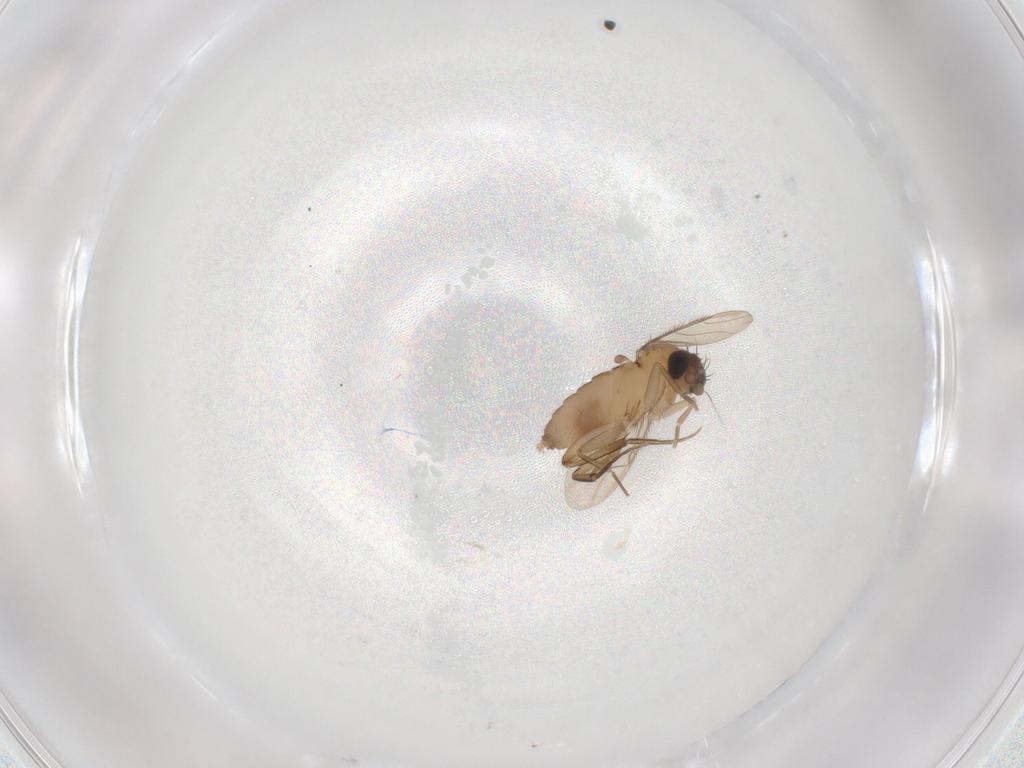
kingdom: Animalia
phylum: Arthropoda
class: Insecta
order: Diptera
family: Phoridae
